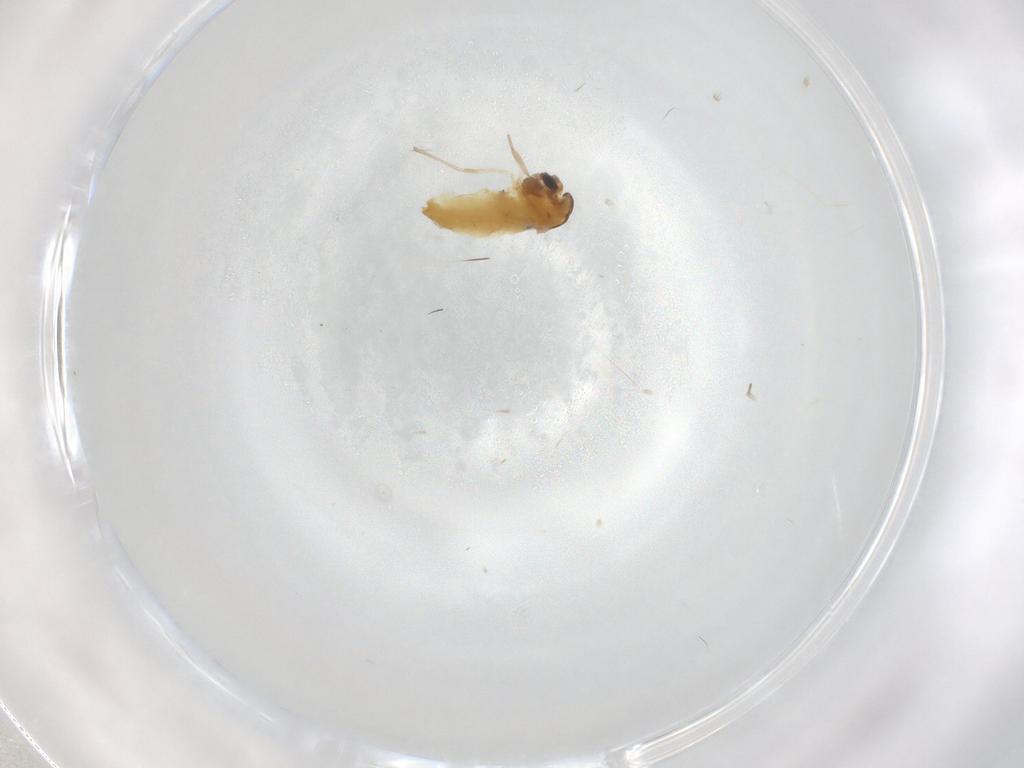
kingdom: Animalia
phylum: Arthropoda
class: Insecta
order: Diptera
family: Chironomidae
